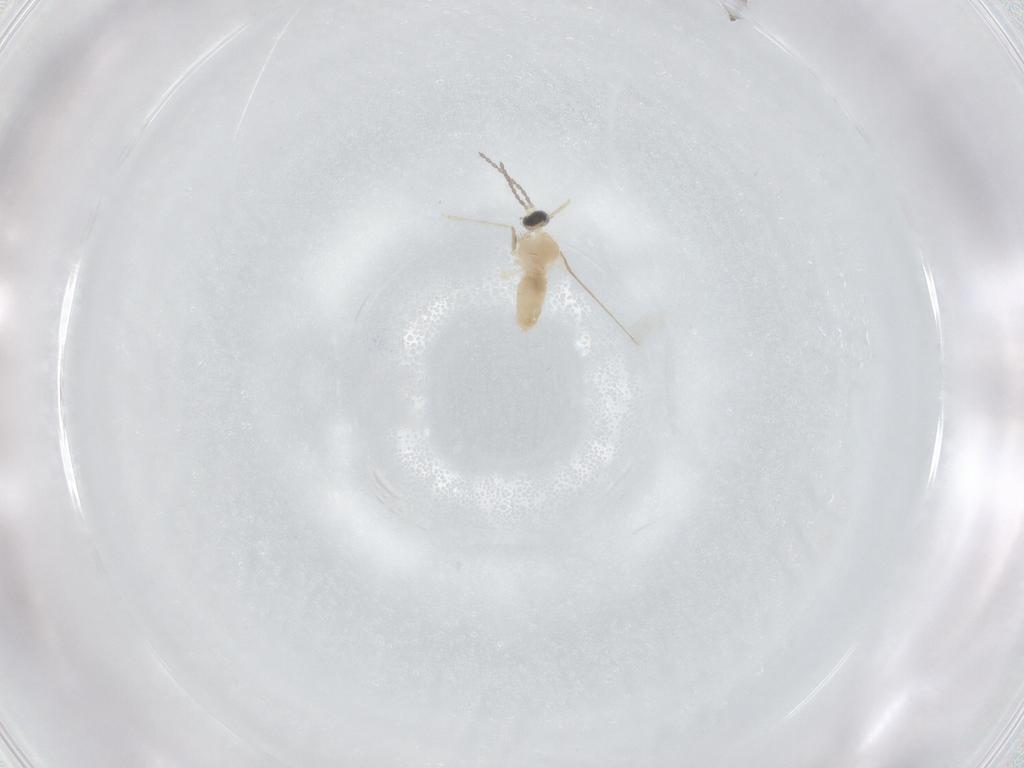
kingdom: Animalia
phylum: Arthropoda
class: Insecta
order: Diptera
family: Cecidomyiidae
